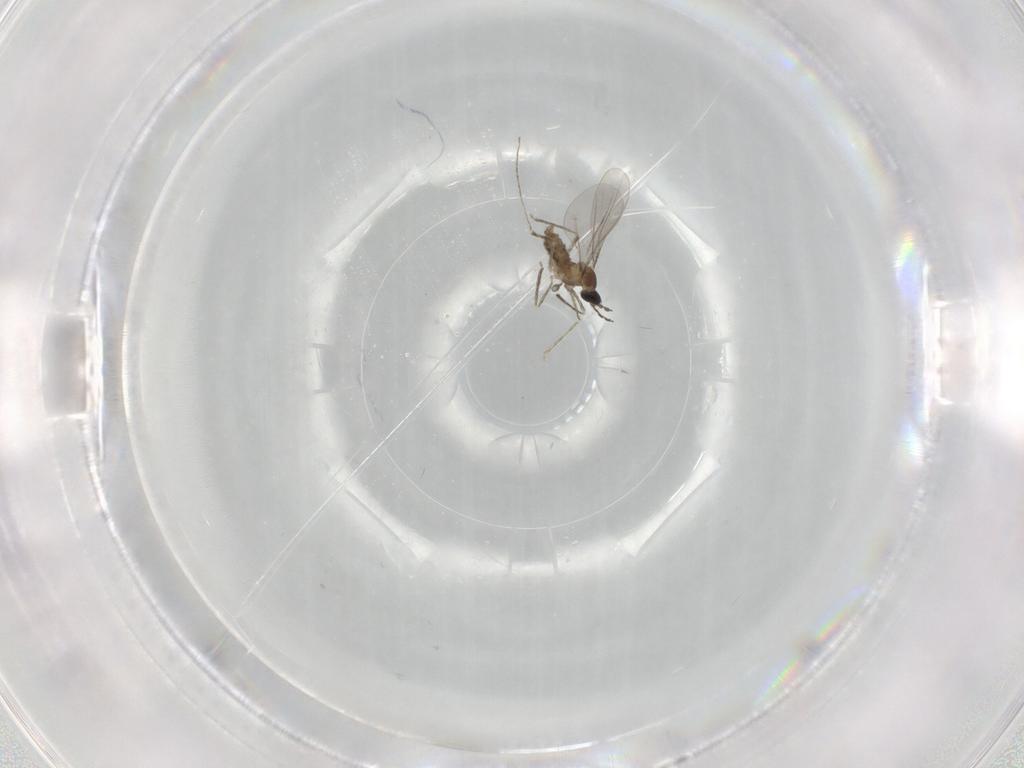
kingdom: Animalia
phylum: Arthropoda
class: Insecta
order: Diptera
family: Cecidomyiidae
